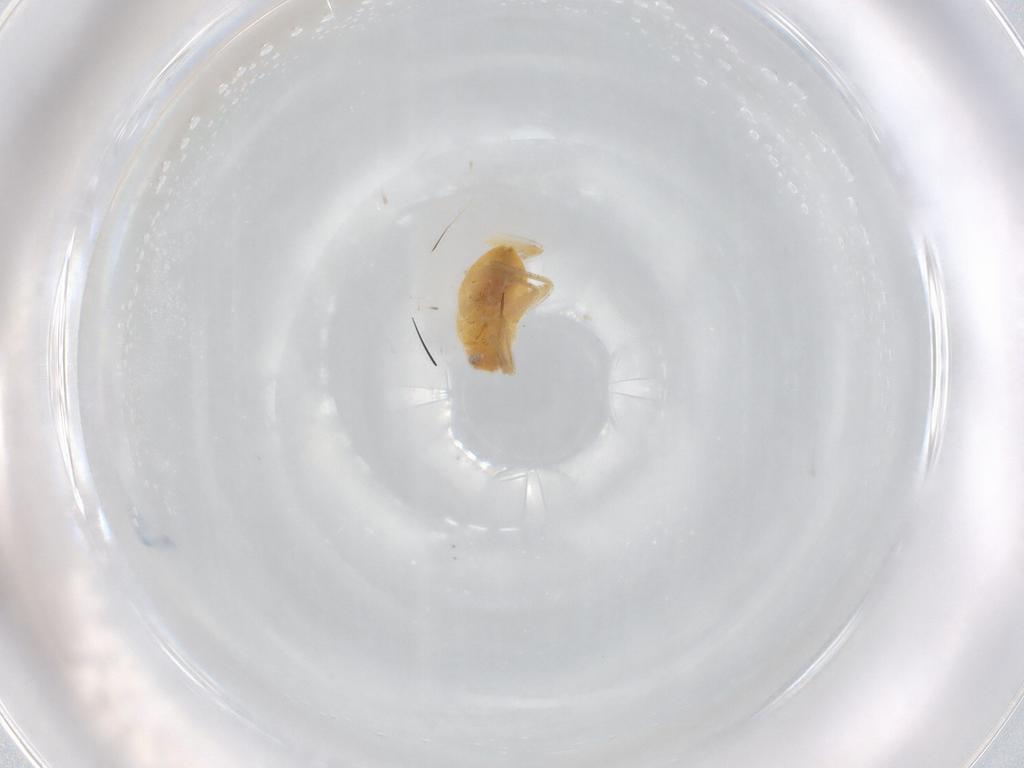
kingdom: Animalia
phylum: Arthropoda
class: Insecta
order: Hemiptera
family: Miridae
